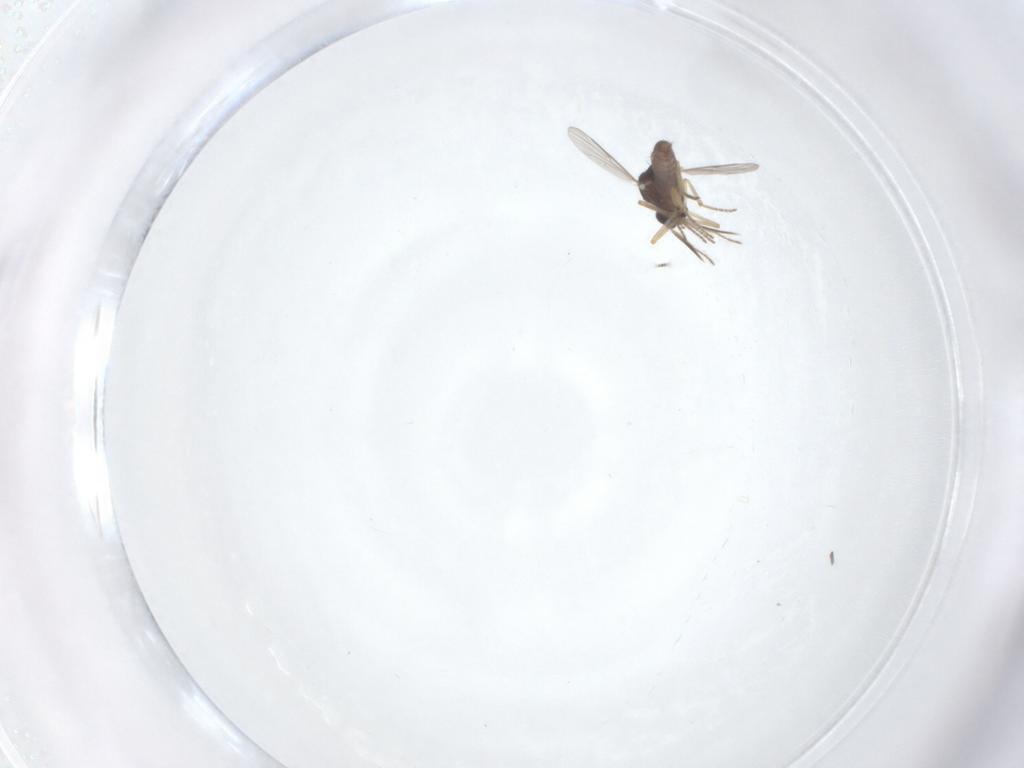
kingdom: Animalia
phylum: Arthropoda
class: Insecta
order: Diptera
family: Ceratopogonidae
